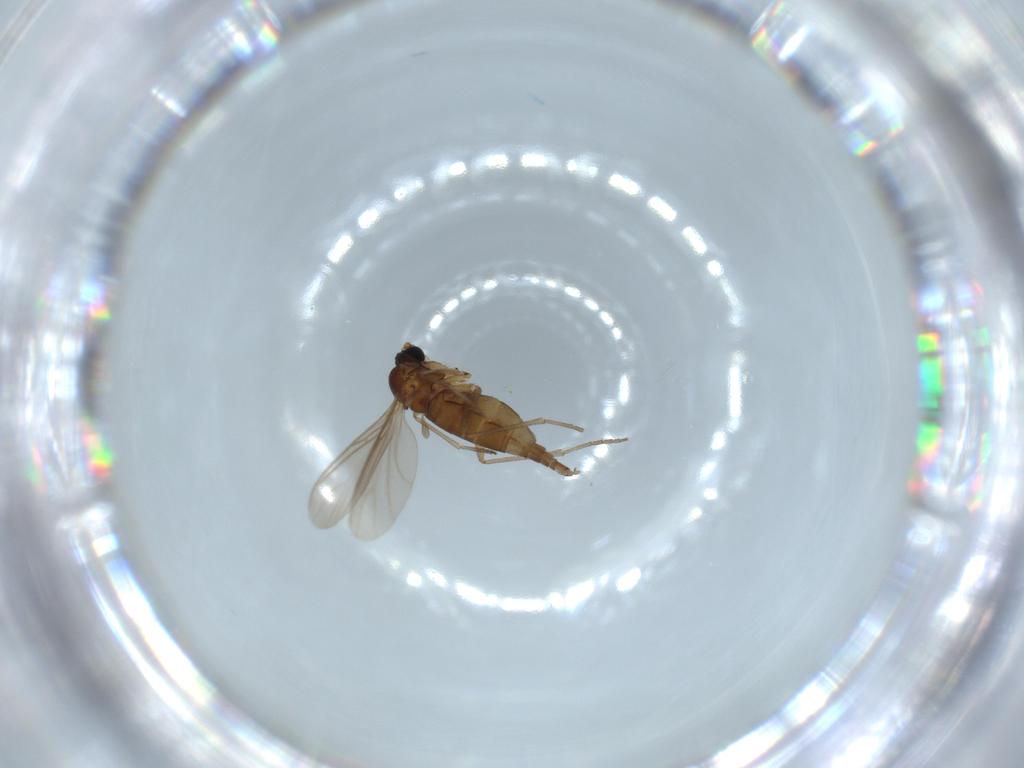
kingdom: Animalia
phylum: Arthropoda
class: Insecta
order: Diptera
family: Sciaridae
